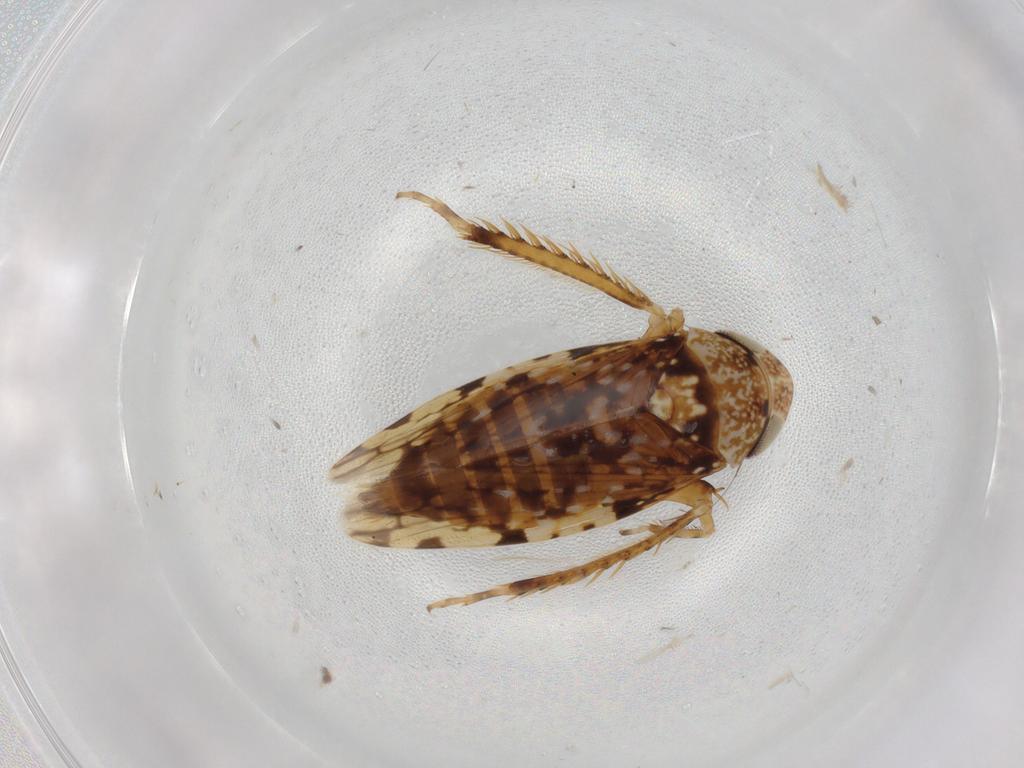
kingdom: Animalia
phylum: Arthropoda
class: Insecta
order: Hemiptera
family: Cicadellidae
